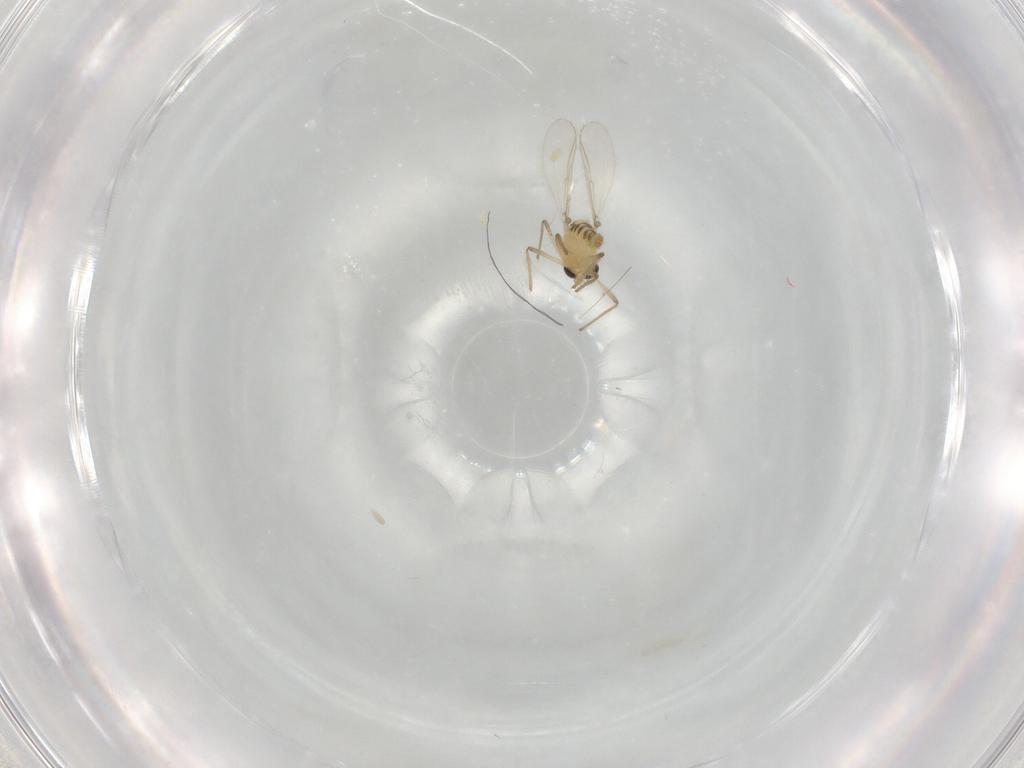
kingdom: Animalia
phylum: Arthropoda
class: Insecta
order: Diptera
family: Chironomidae
